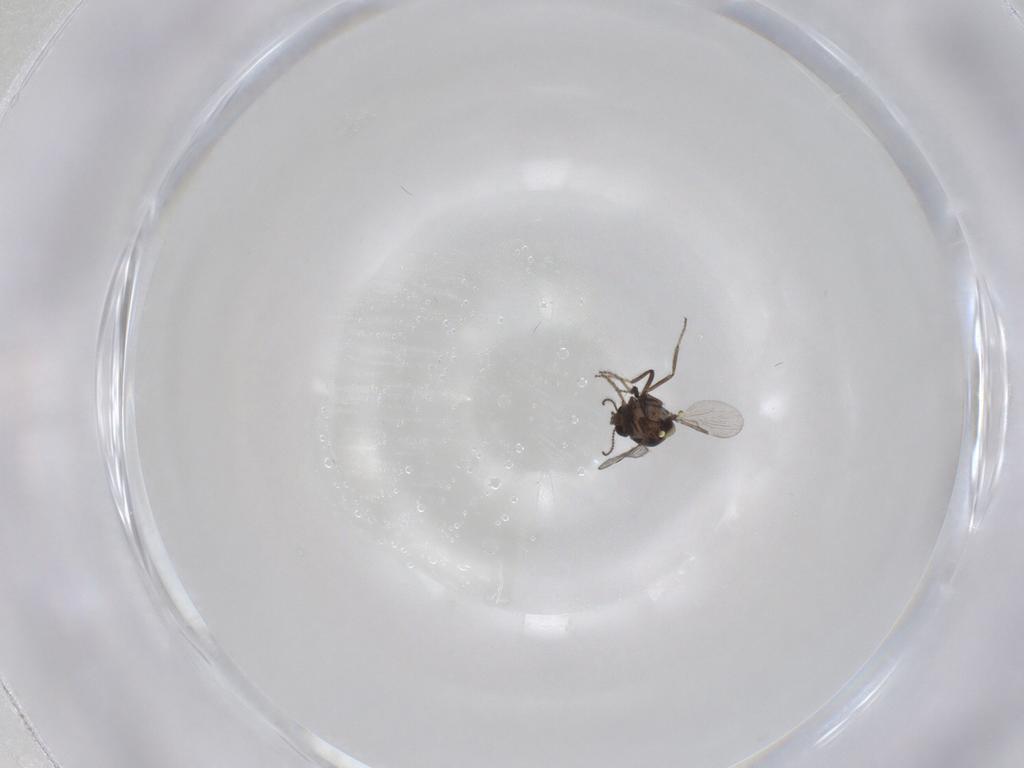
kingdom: Animalia
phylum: Arthropoda
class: Insecta
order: Diptera
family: Ceratopogonidae
